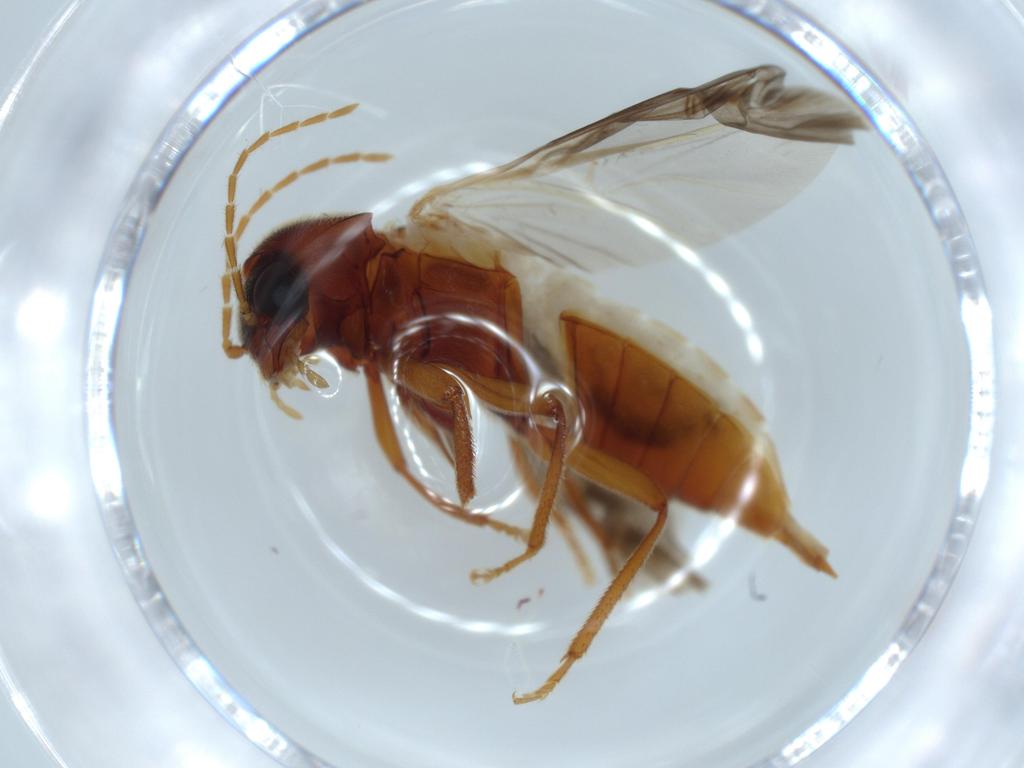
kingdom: Animalia
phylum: Arthropoda
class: Insecta
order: Coleoptera
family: Ptilodactylidae
